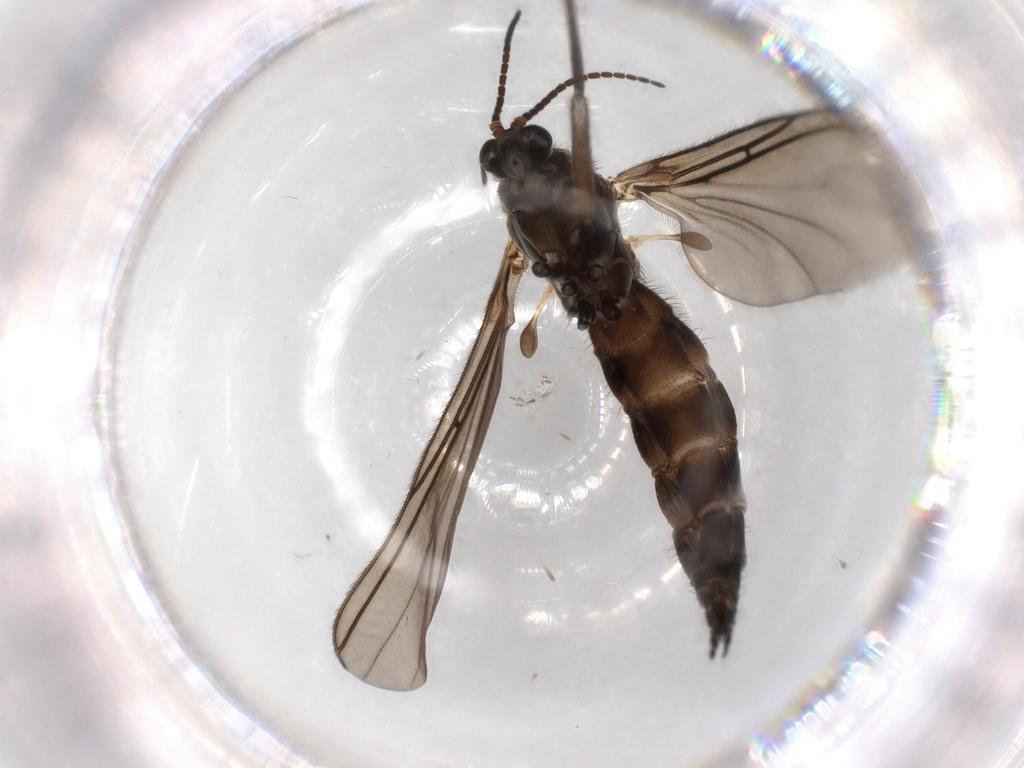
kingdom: Animalia
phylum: Arthropoda
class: Insecta
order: Diptera
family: Sciaridae
